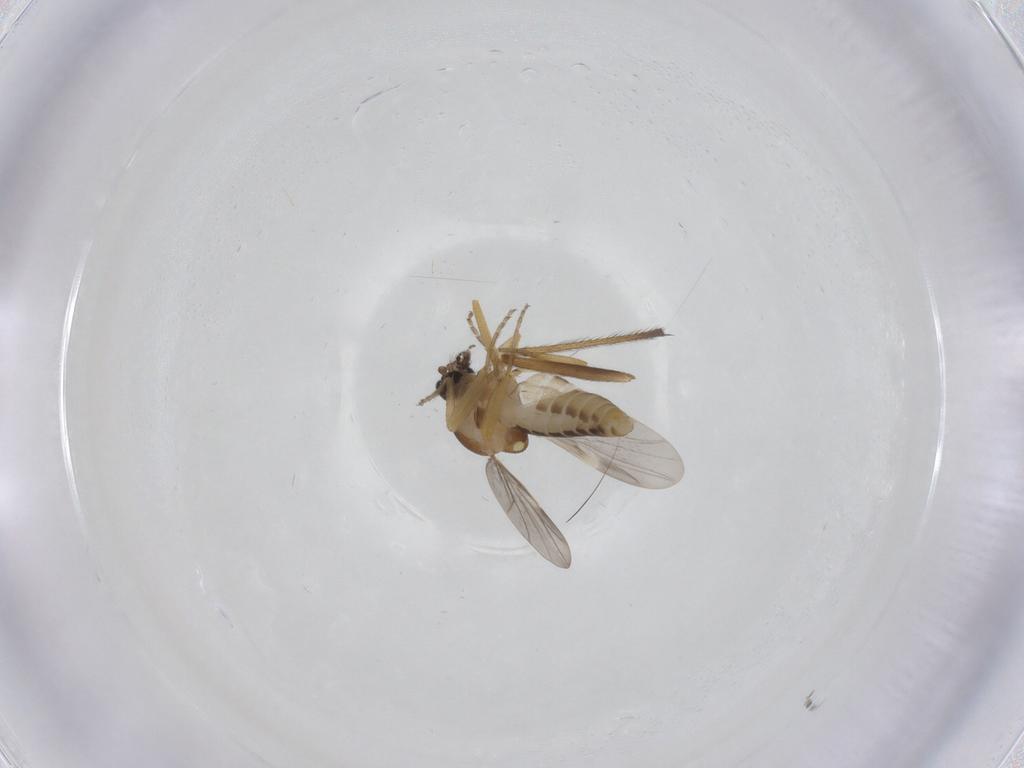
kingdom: Animalia
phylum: Arthropoda
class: Insecta
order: Diptera
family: Ceratopogonidae
